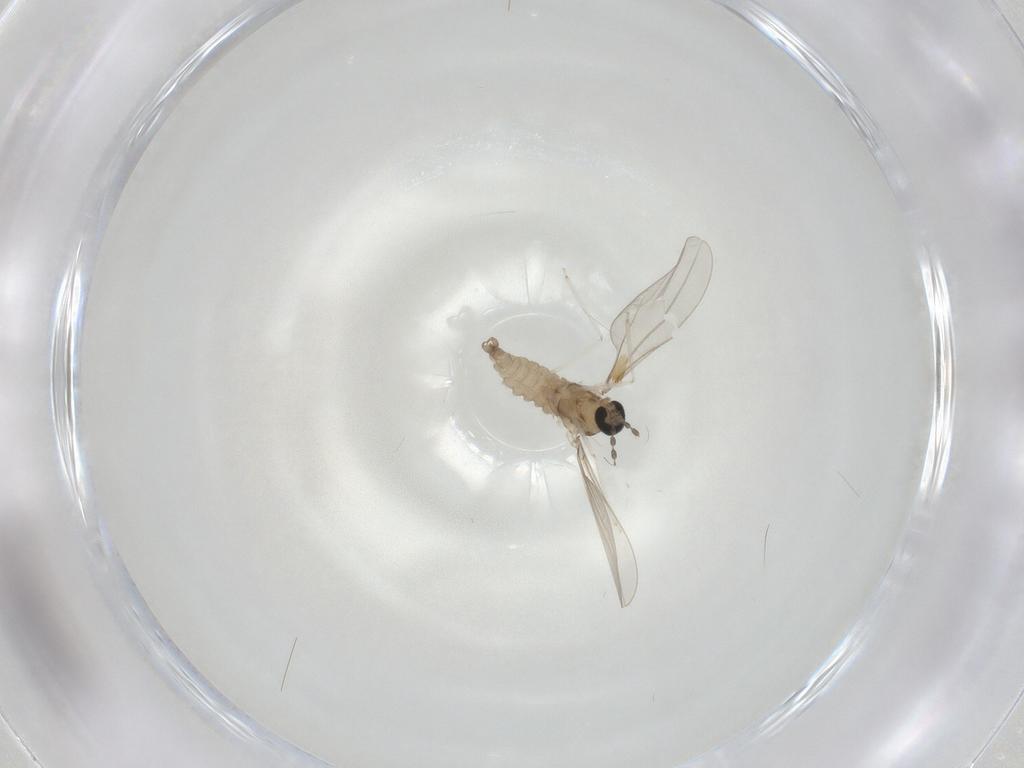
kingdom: Animalia
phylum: Arthropoda
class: Insecta
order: Diptera
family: Cecidomyiidae
